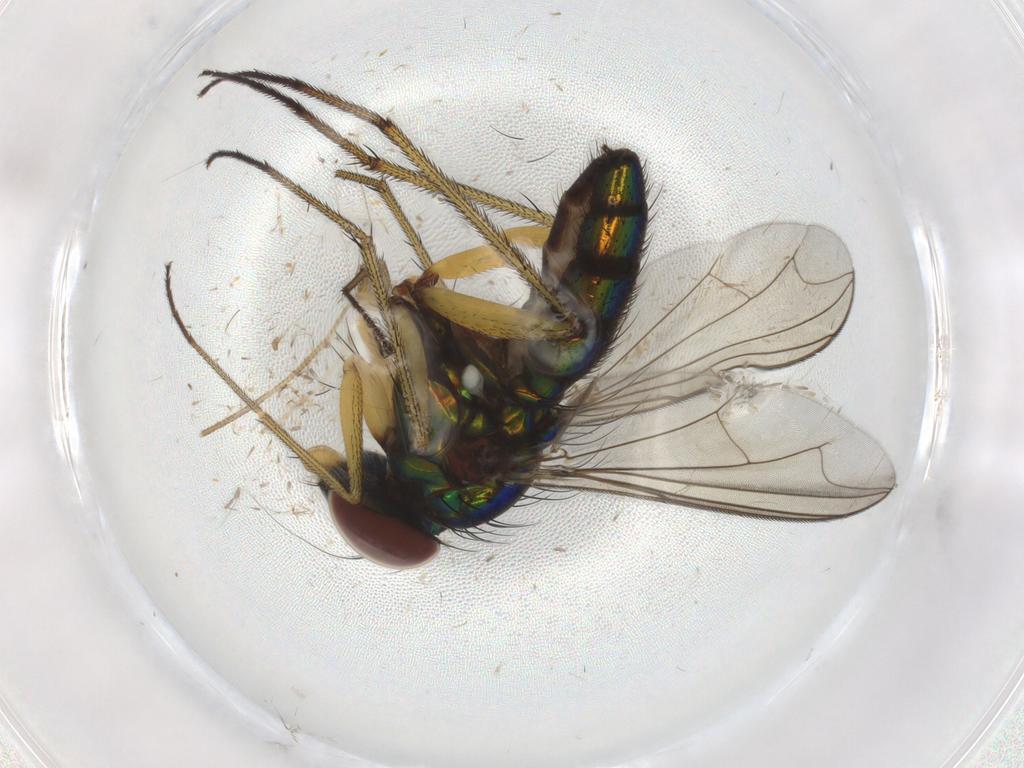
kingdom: Animalia
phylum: Arthropoda
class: Insecta
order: Diptera
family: Dolichopodidae
